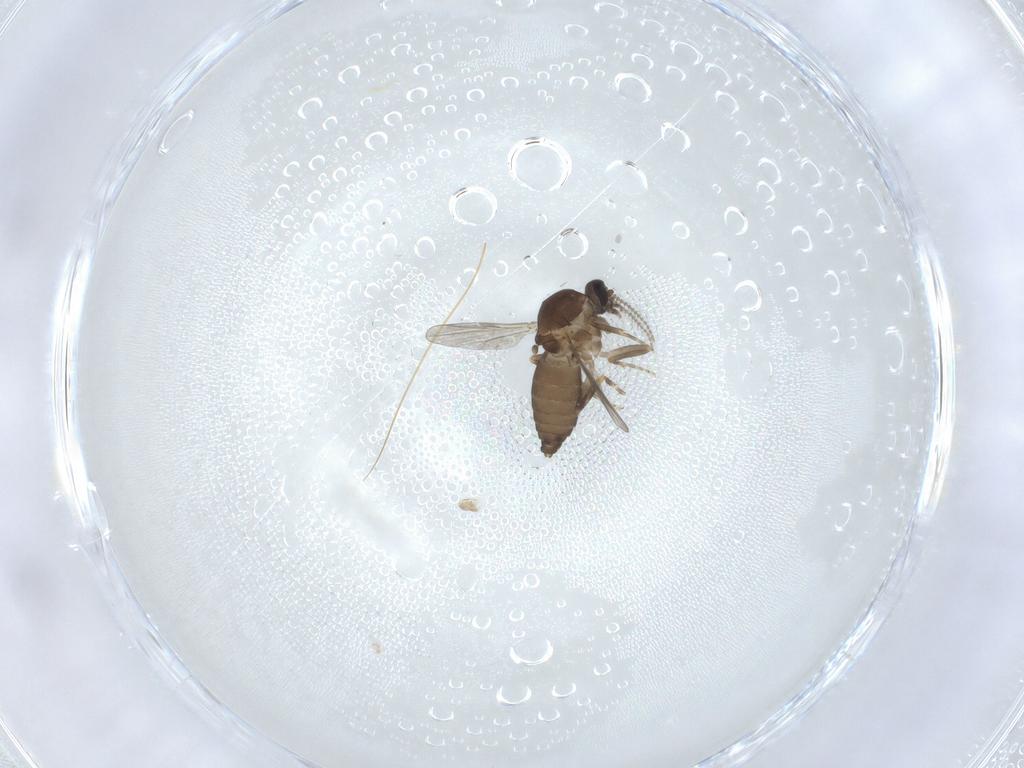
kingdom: Animalia
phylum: Arthropoda
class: Insecta
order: Diptera
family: Ceratopogonidae
